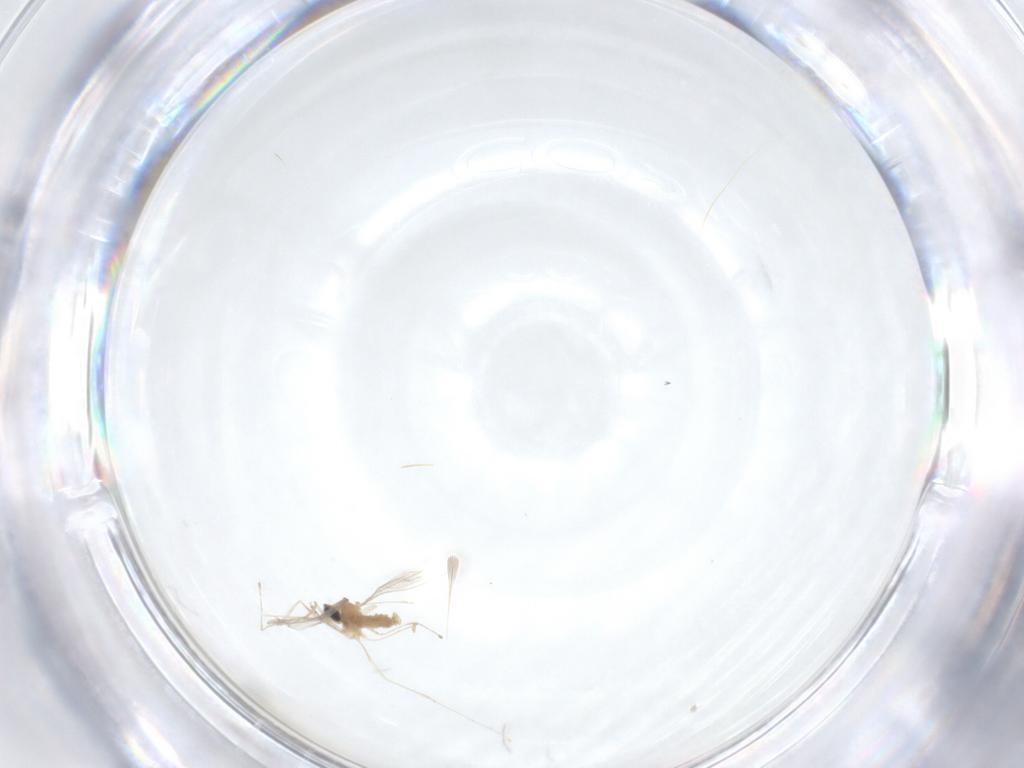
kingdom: Animalia
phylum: Arthropoda
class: Insecta
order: Diptera
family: Cecidomyiidae
